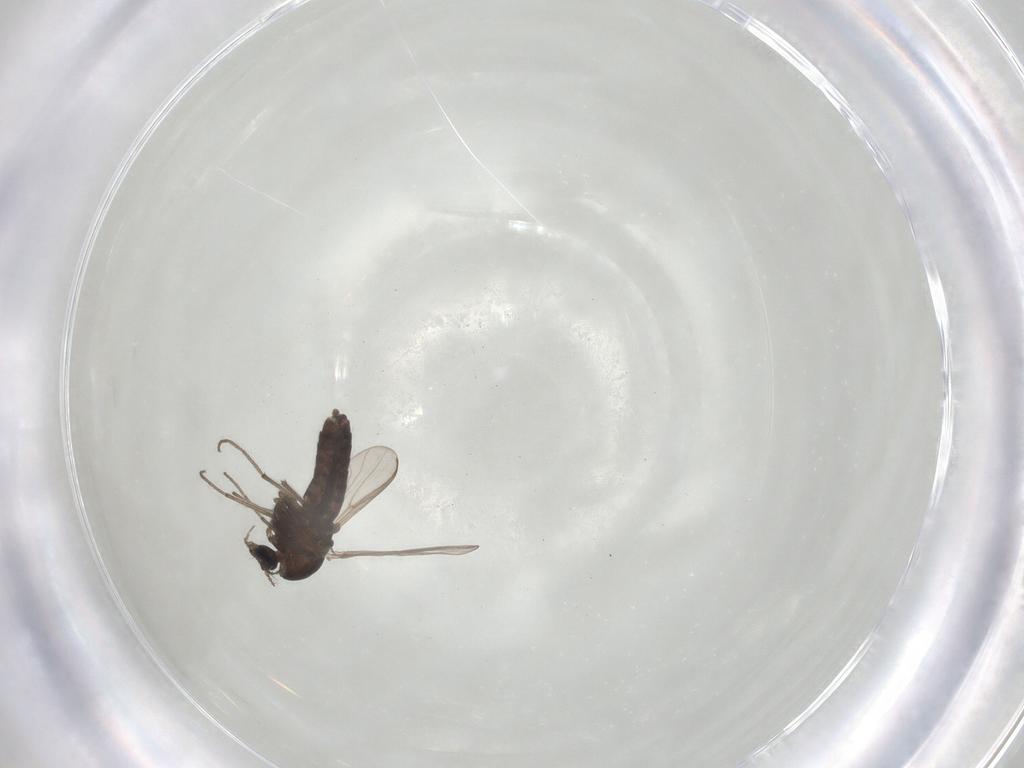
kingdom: Animalia
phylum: Arthropoda
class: Insecta
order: Diptera
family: Chironomidae
